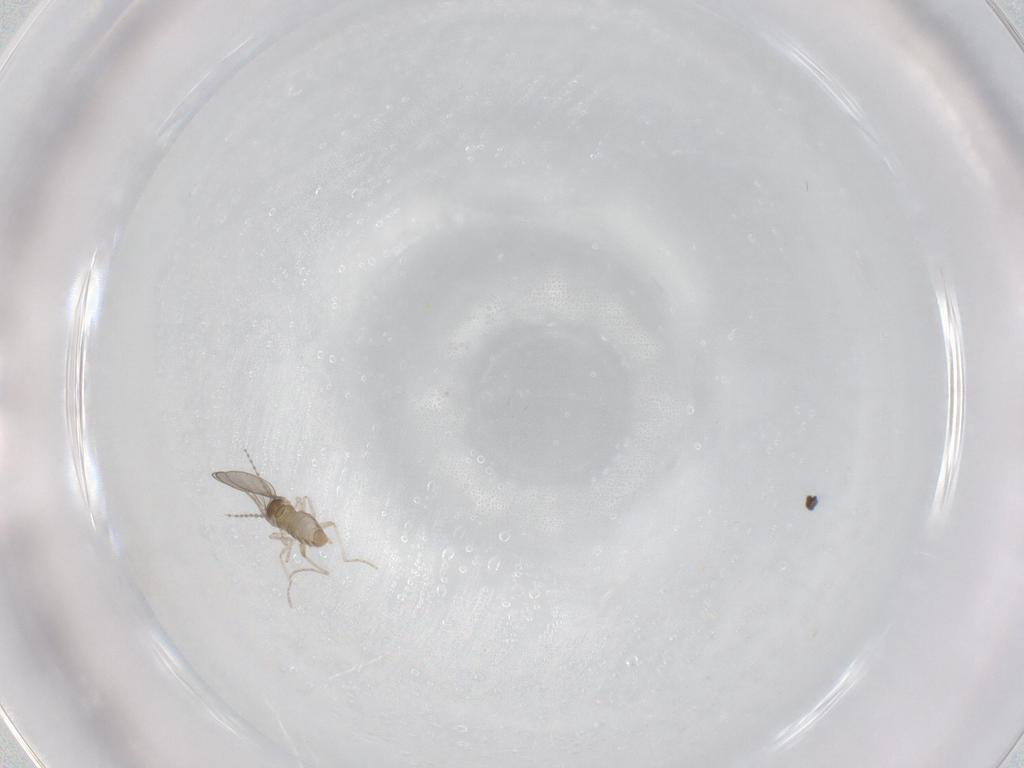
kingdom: Animalia
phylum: Arthropoda
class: Insecta
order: Diptera
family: Cecidomyiidae
